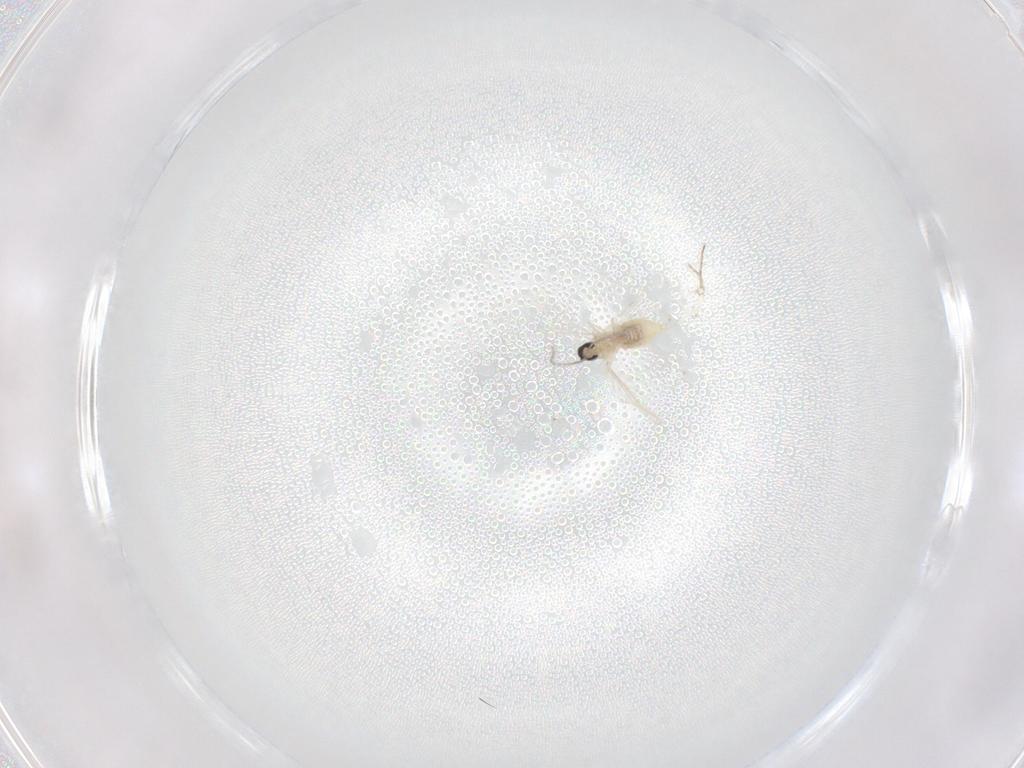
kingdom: Animalia
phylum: Arthropoda
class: Insecta
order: Diptera
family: Cecidomyiidae
